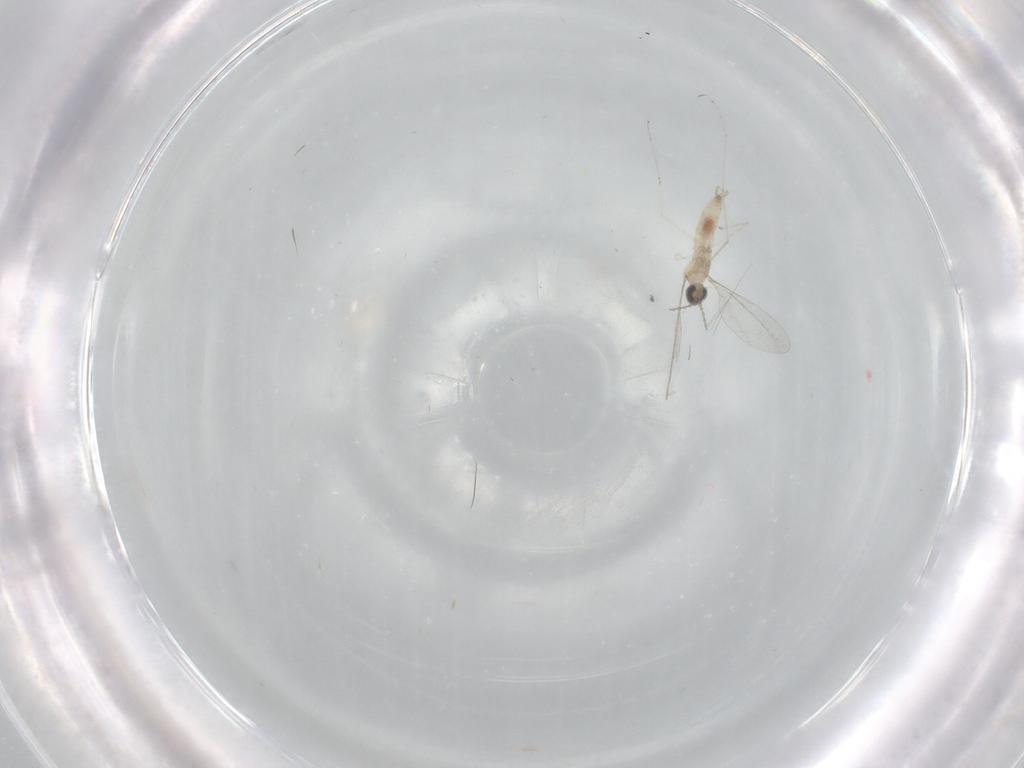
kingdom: Animalia
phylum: Arthropoda
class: Insecta
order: Diptera
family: Cecidomyiidae
